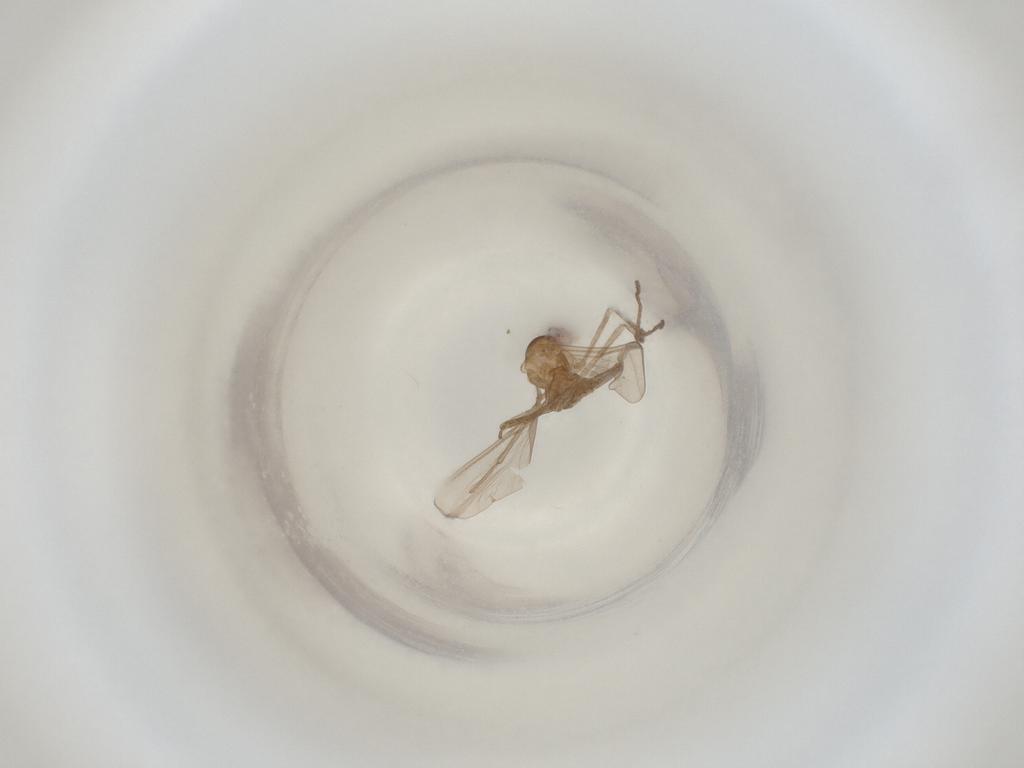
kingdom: Animalia
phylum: Arthropoda
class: Insecta
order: Diptera
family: Cecidomyiidae
